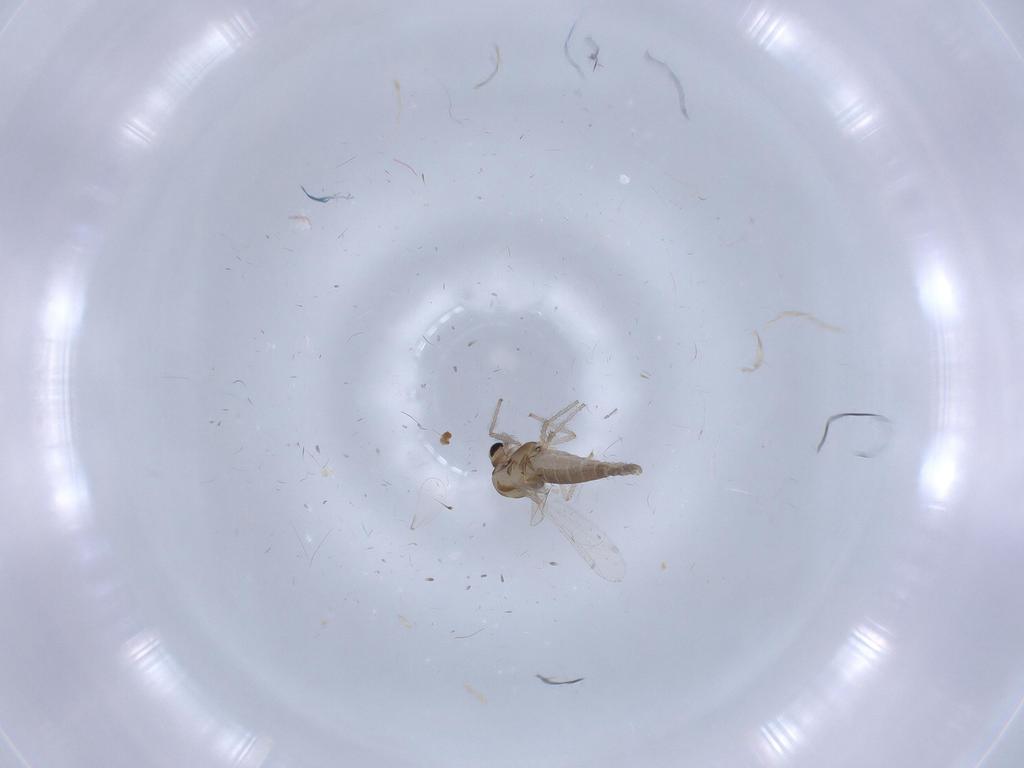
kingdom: Animalia
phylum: Arthropoda
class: Insecta
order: Diptera
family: Chironomidae
